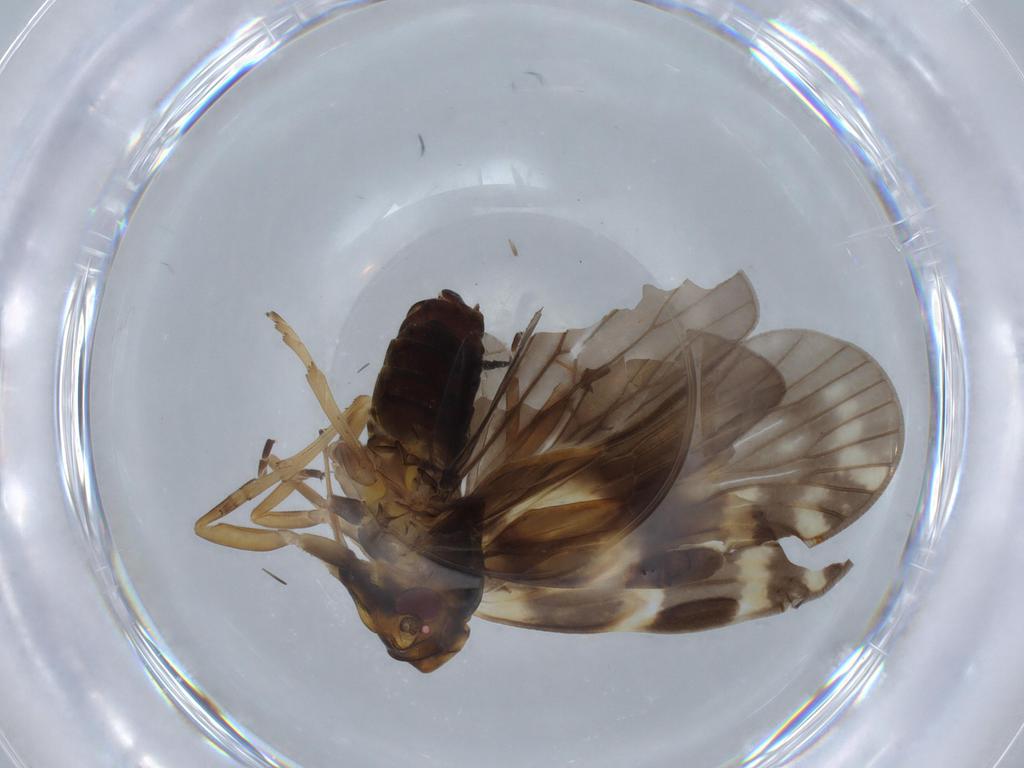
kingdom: Animalia
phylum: Arthropoda
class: Insecta
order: Hemiptera
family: Cixiidae
